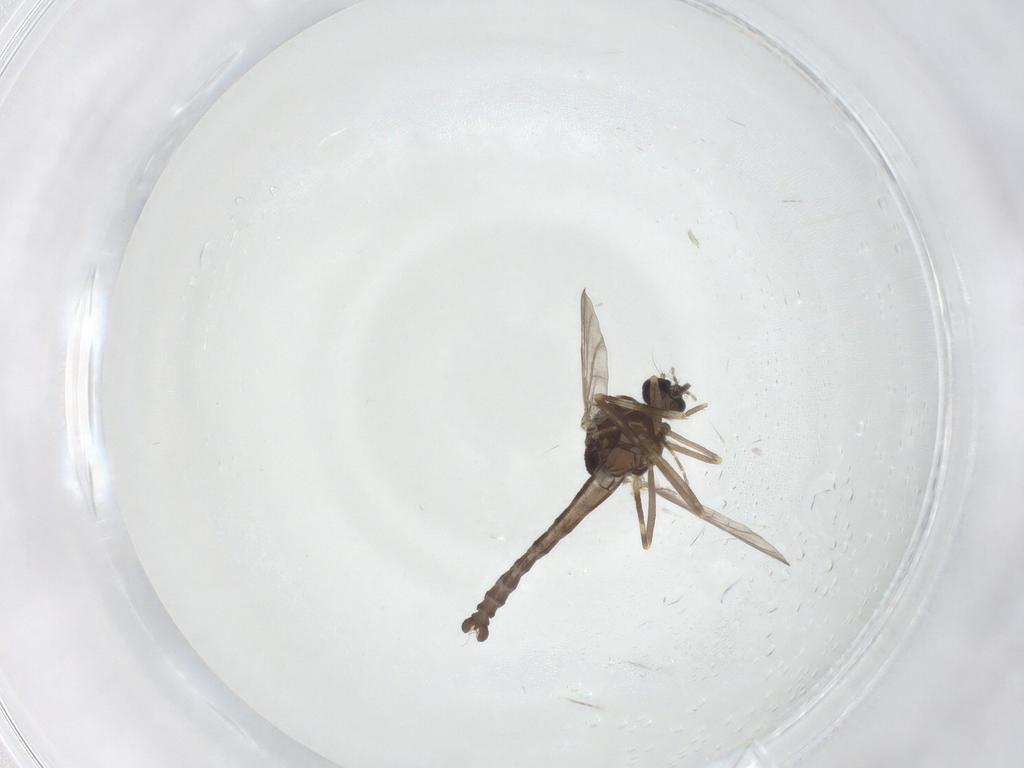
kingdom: Animalia
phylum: Arthropoda
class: Insecta
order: Diptera
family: Ceratopogonidae
